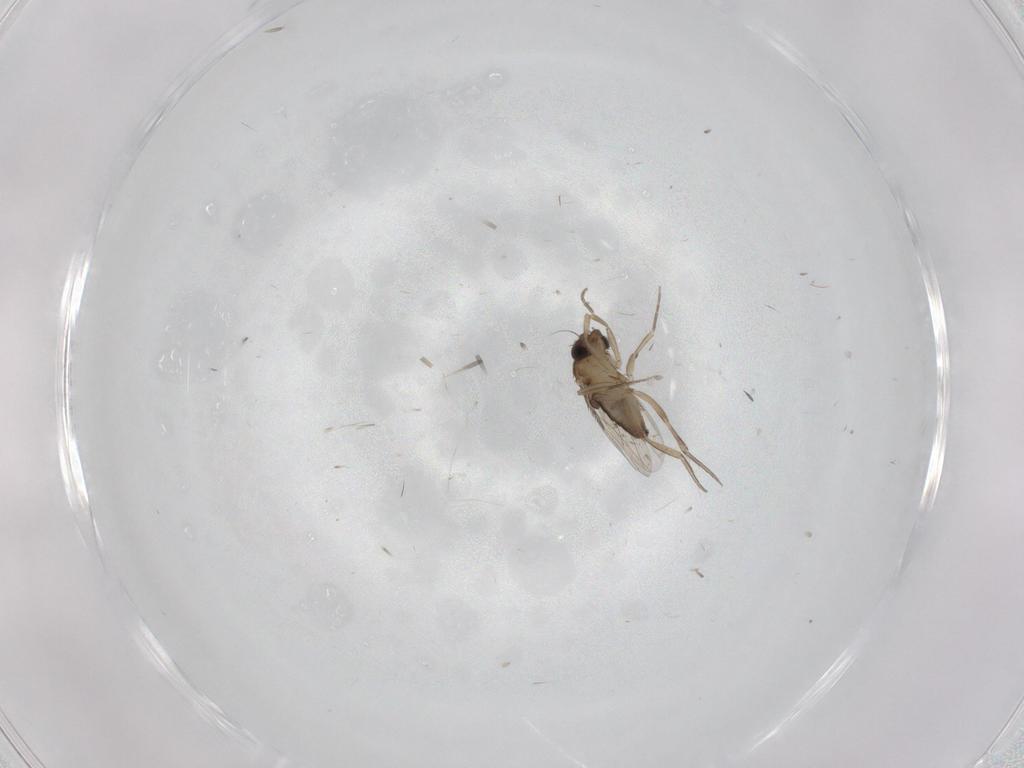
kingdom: Animalia
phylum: Arthropoda
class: Insecta
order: Diptera
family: Phoridae
